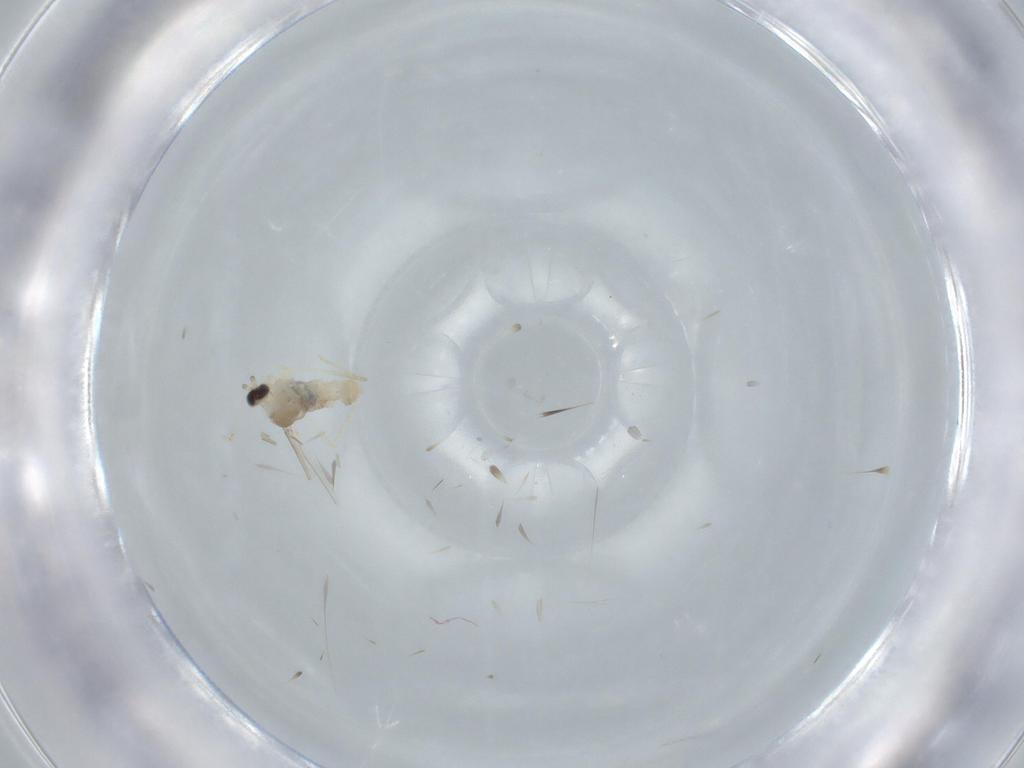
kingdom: Animalia
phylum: Arthropoda
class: Insecta
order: Diptera
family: Cecidomyiidae
